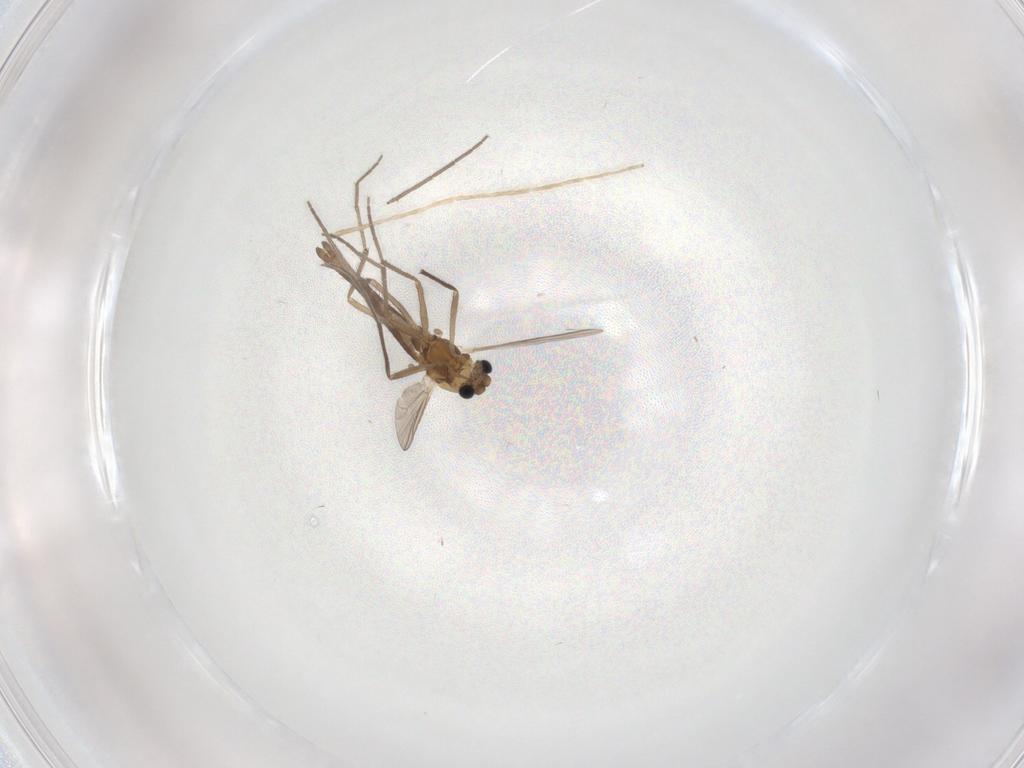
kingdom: Animalia
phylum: Arthropoda
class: Insecta
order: Diptera
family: Chironomidae
